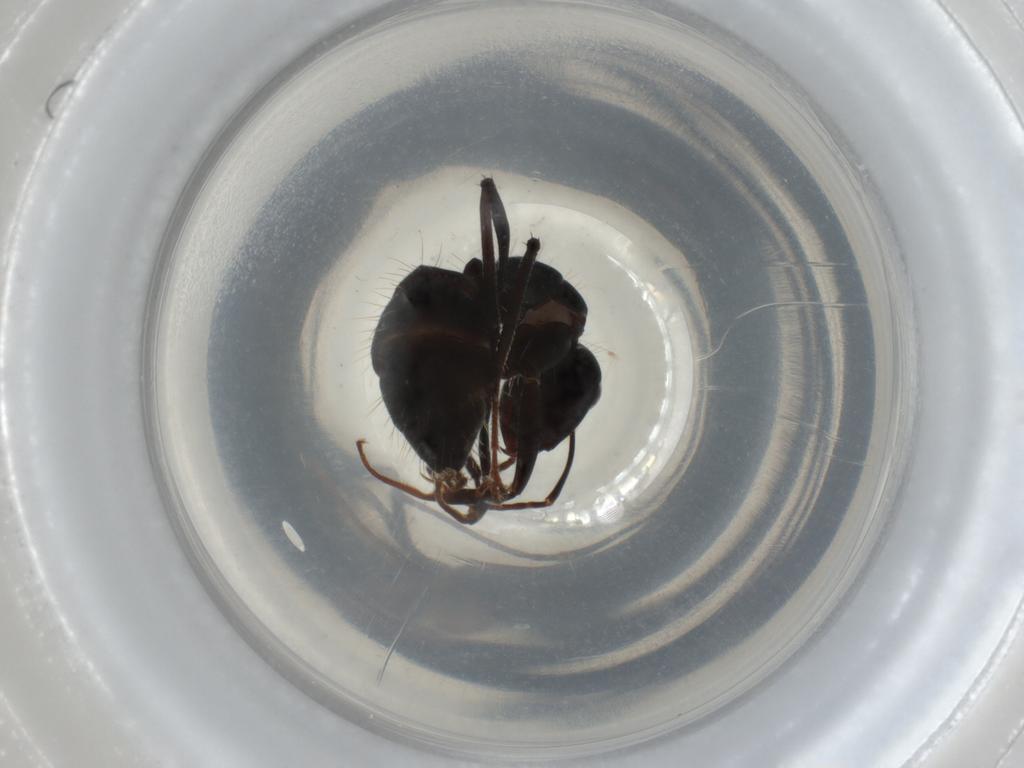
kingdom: Animalia
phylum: Arthropoda
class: Insecta
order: Hymenoptera
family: Formicidae
